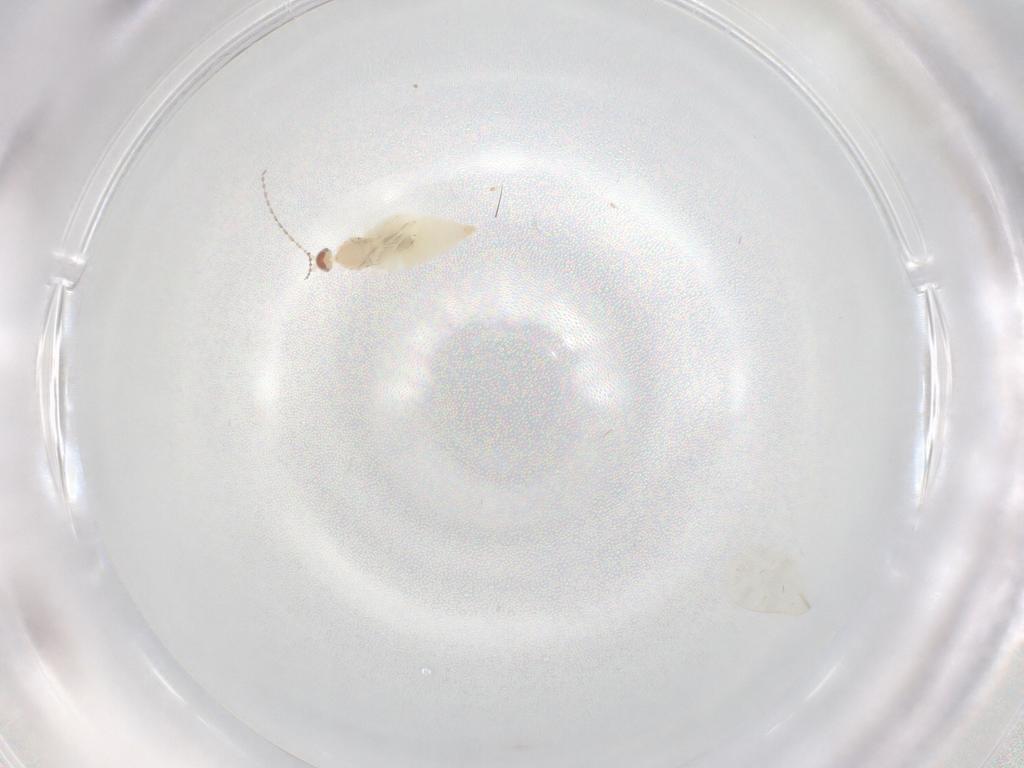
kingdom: Animalia
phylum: Arthropoda
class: Insecta
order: Diptera
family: Cecidomyiidae
